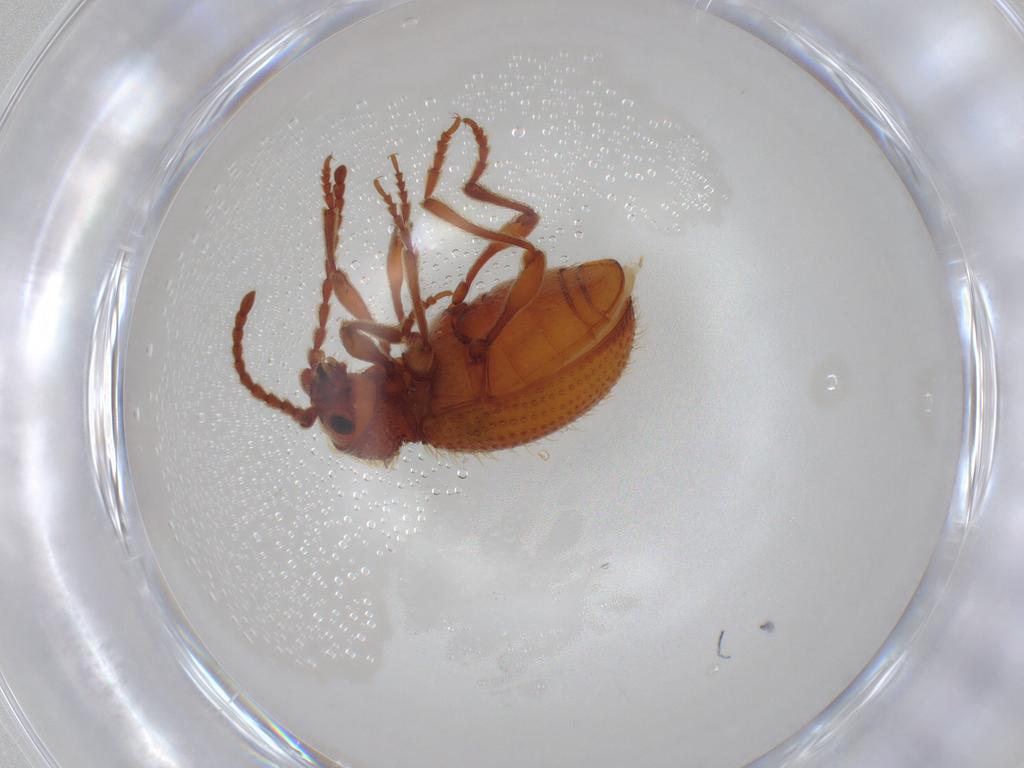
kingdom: Animalia
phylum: Arthropoda
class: Insecta
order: Coleoptera
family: Ptinidae
